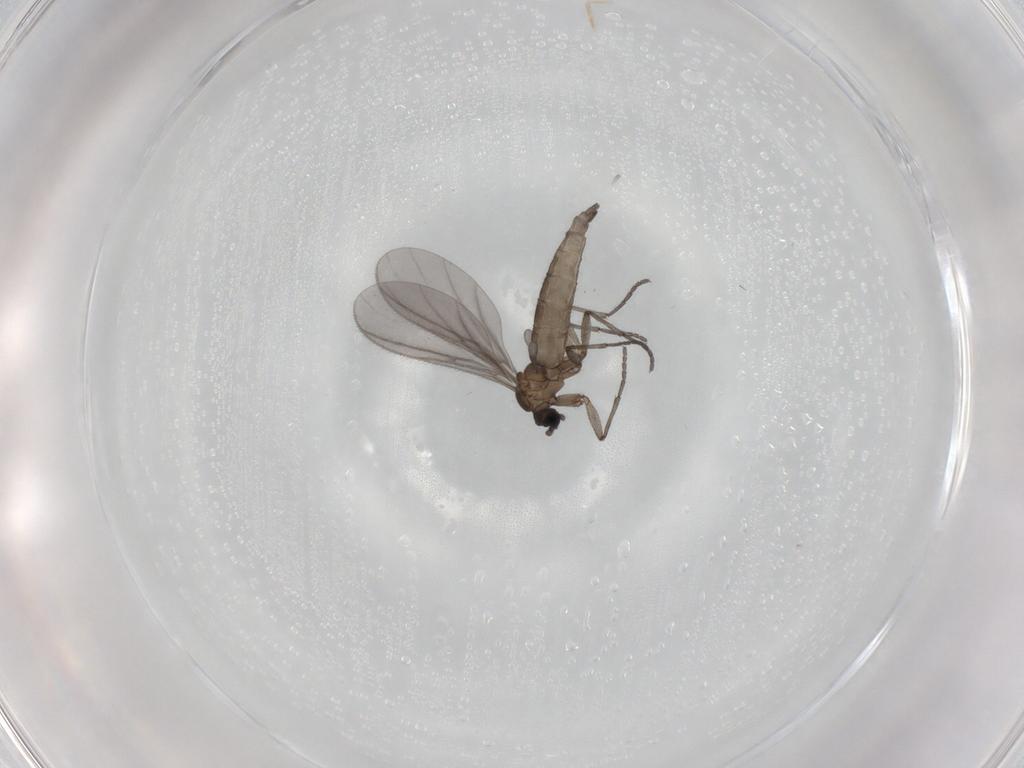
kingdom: Animalia
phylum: Arthropoda
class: Insecta
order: Diptera
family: Sciaridae
